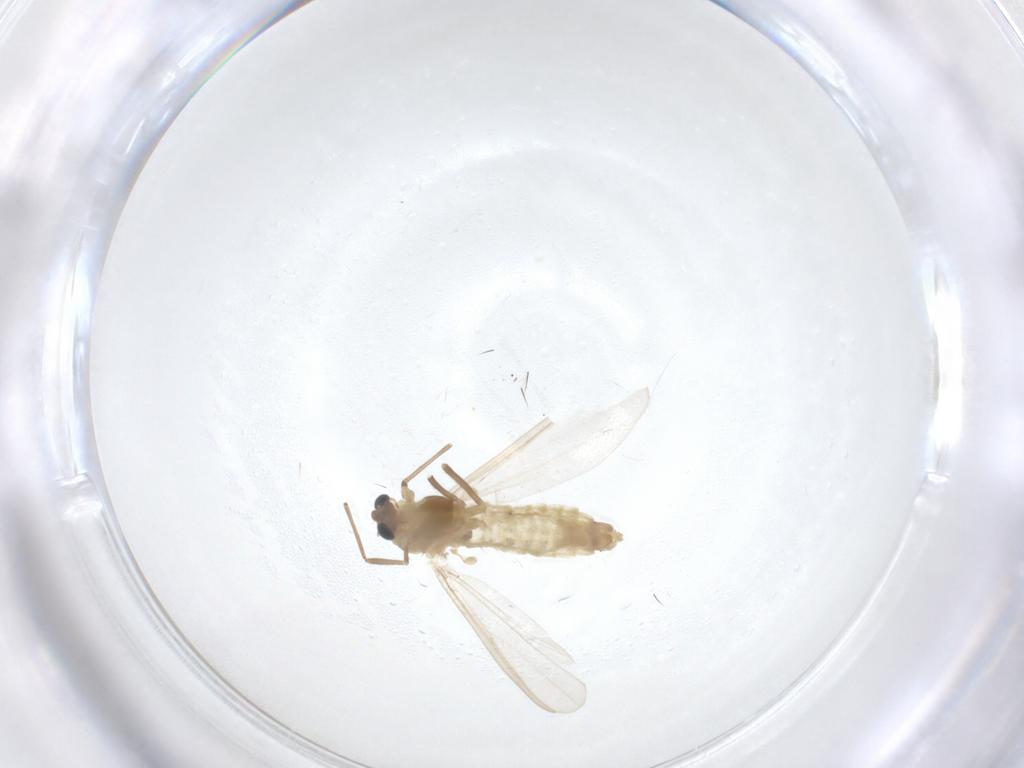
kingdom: Animalia
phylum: Arthropoda
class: Insecta
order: Diptera
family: Chironomidae
